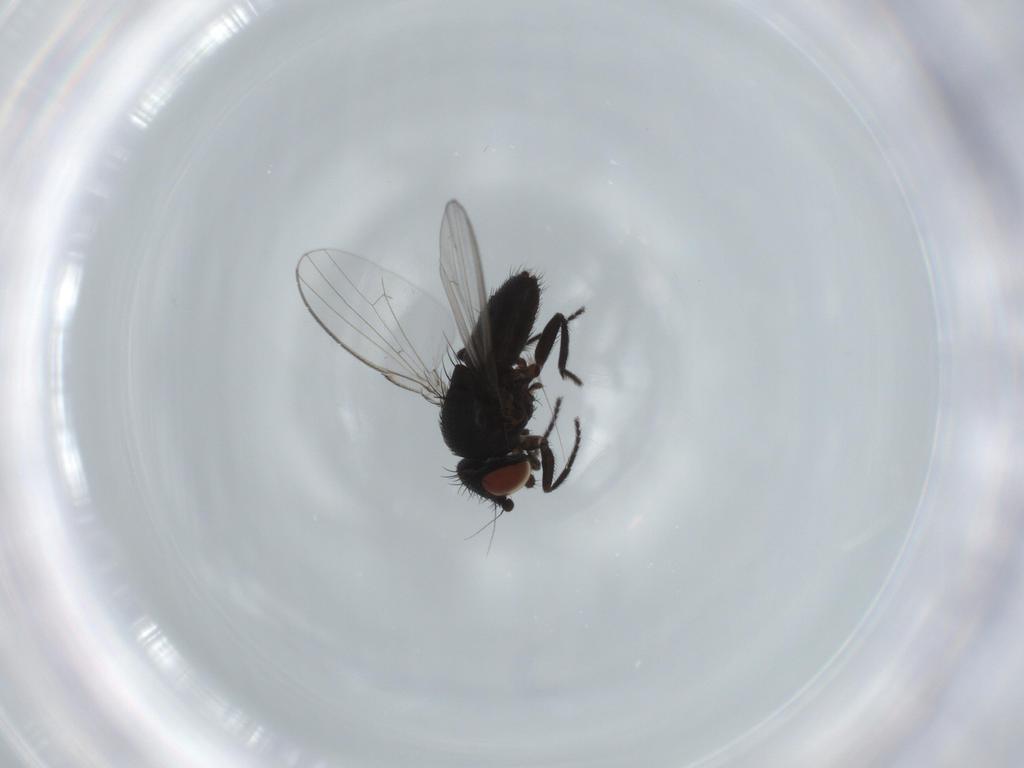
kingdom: Animalia
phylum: Arthropoda
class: Insecta
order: Diptera
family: Milichiidae
